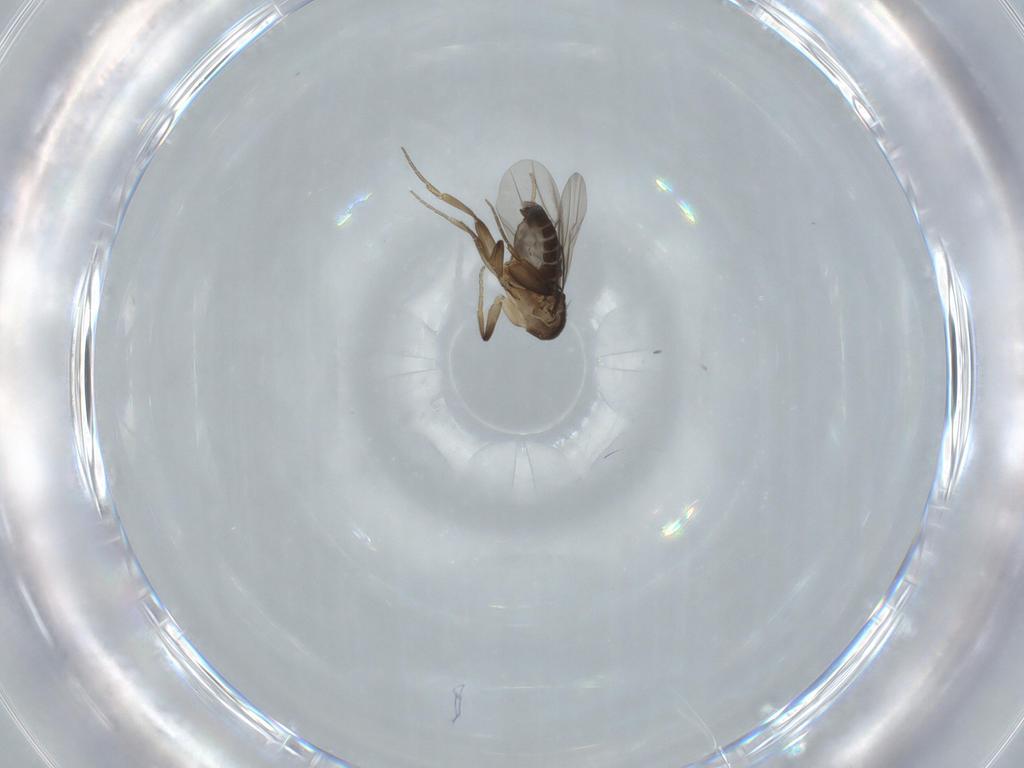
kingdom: Animalia
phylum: Arthropoda
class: Insecta
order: Diptera
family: Phoridae
